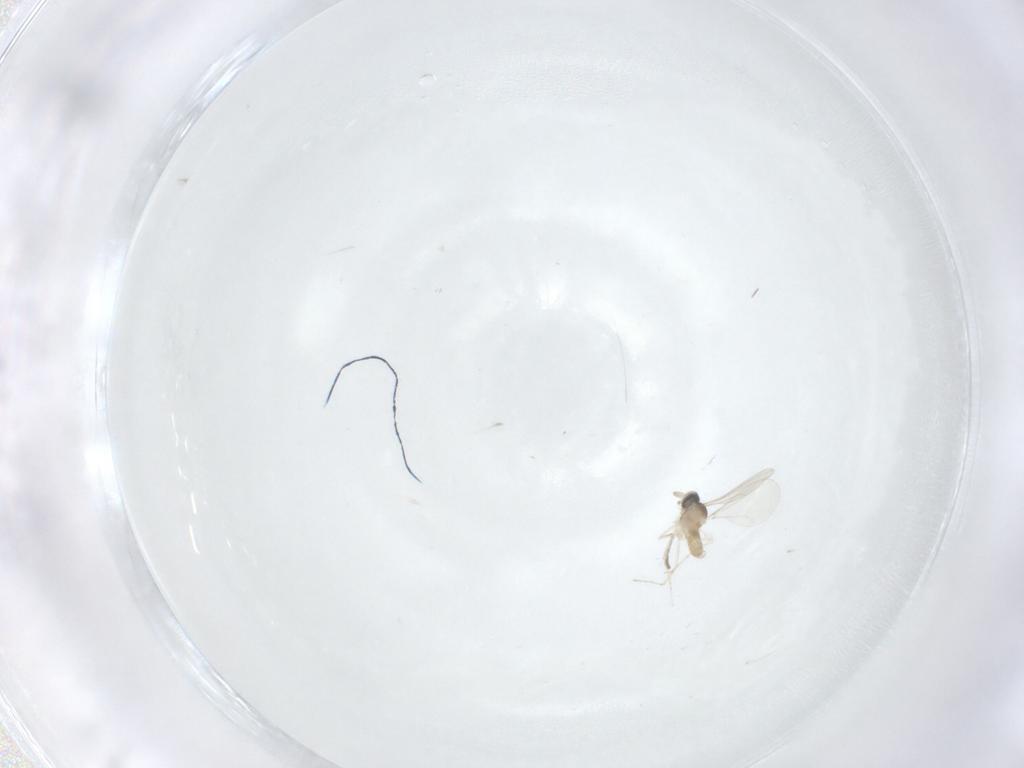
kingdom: Animalia
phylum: Arthropoda
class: Insecta
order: Diptera
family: Cecidomyiidae
